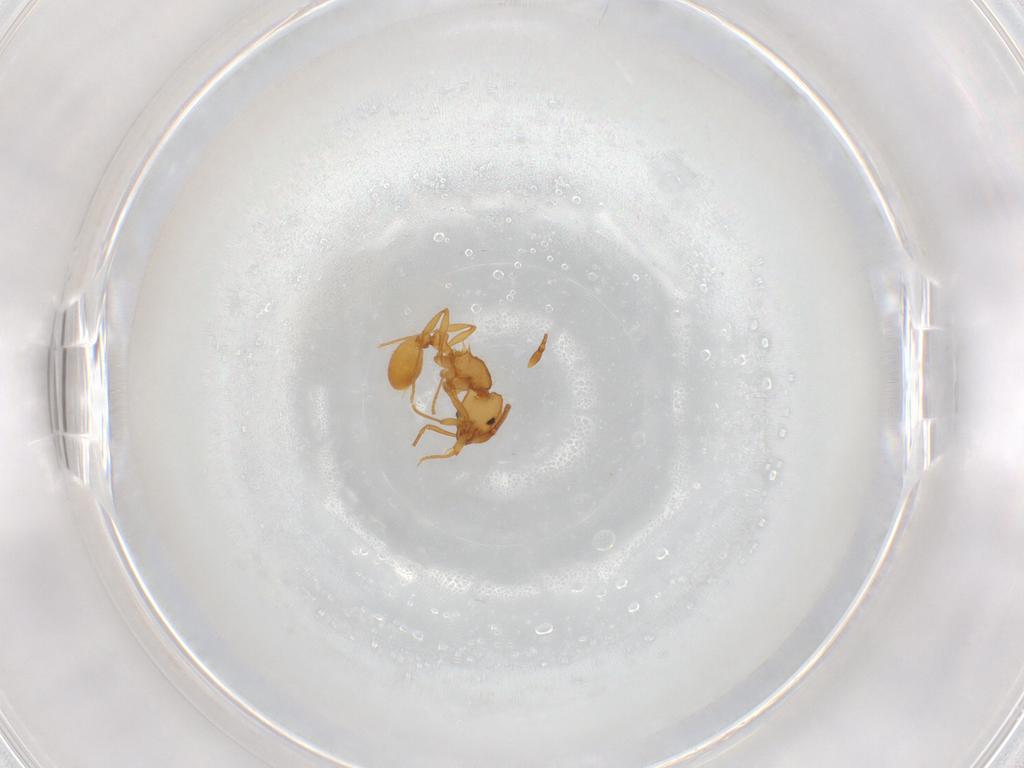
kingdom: Animalia
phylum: Arthropoda
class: Insecta
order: Hymenoptera
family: Formicidae
